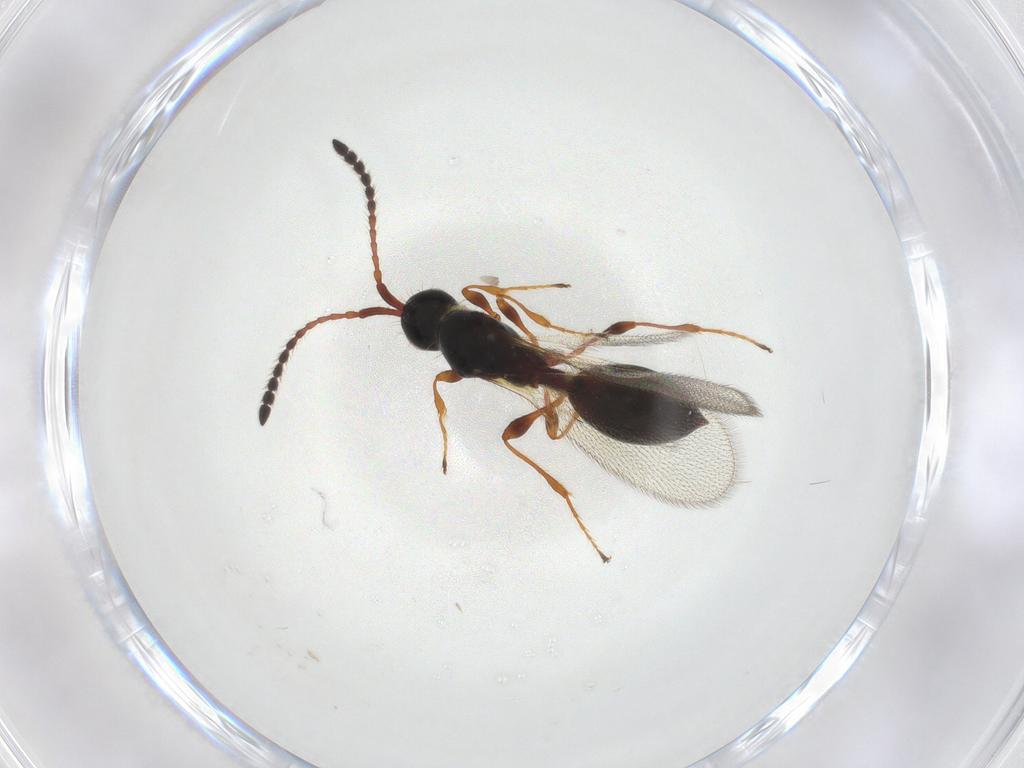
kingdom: Animalia
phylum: Arthropoda
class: Insecta
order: Hymenoptera
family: Diapriidae
